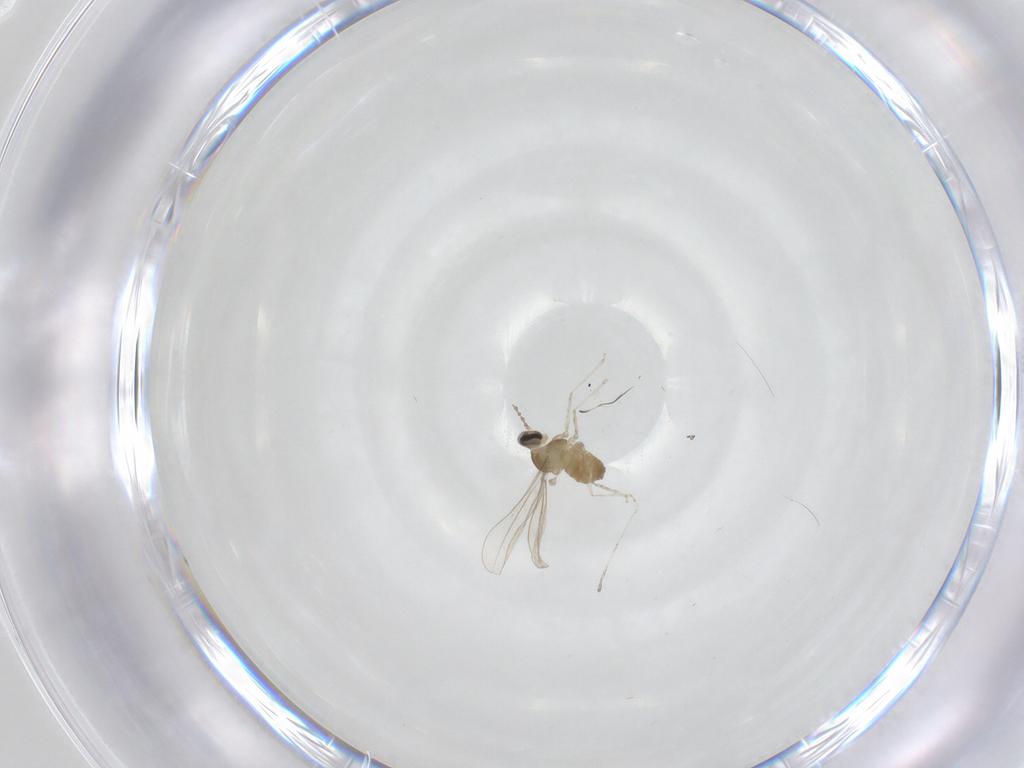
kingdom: Animalia
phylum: Arthropoda
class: Insecta
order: Diptera
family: Cecidomyiidae
